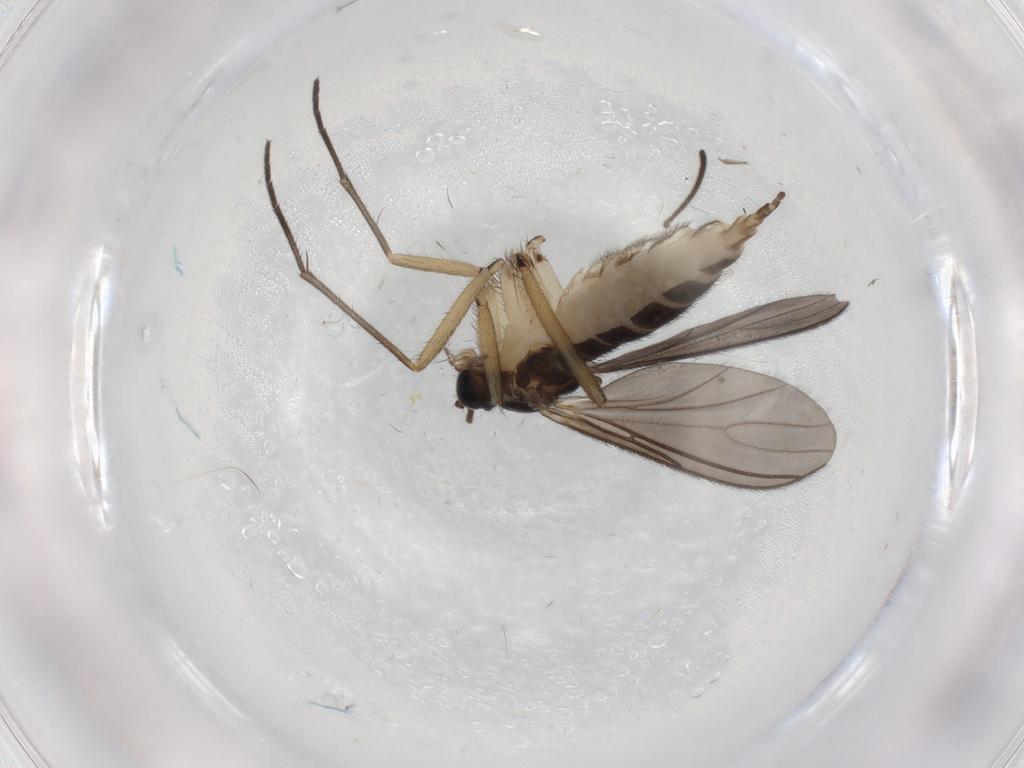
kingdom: Animalia
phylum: Arthropoda
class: Insecta
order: Diptera
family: Sciaridae
